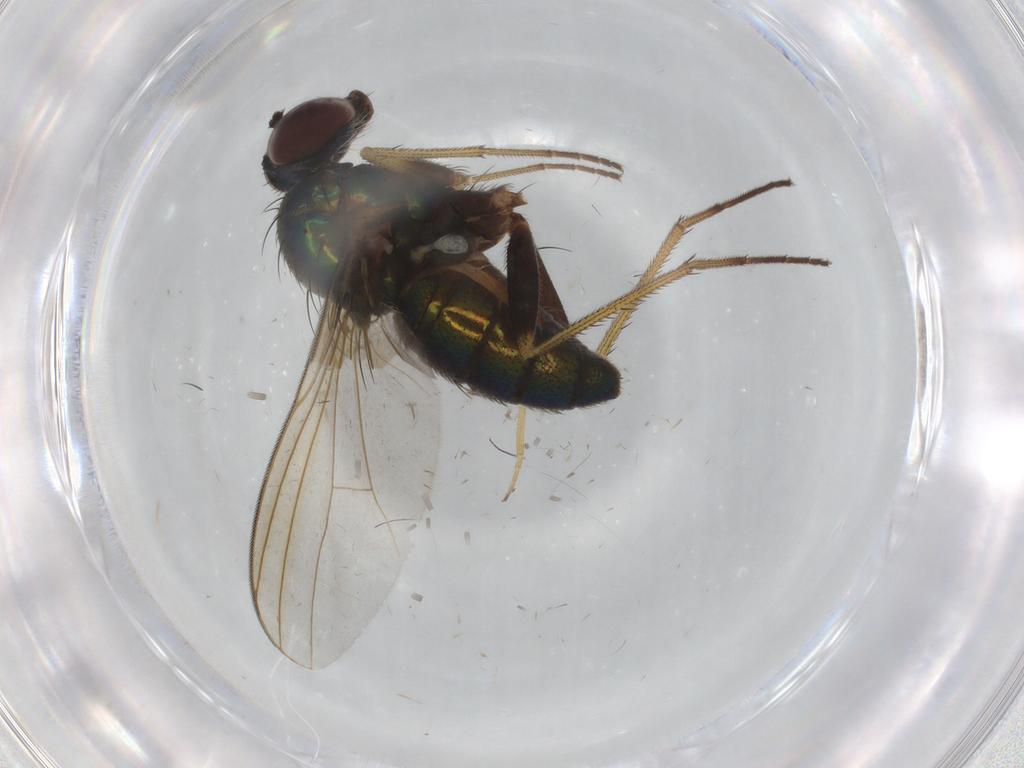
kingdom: Animalia
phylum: Arthropoda
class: Insecta
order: Diptera
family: Dolichopodidae
